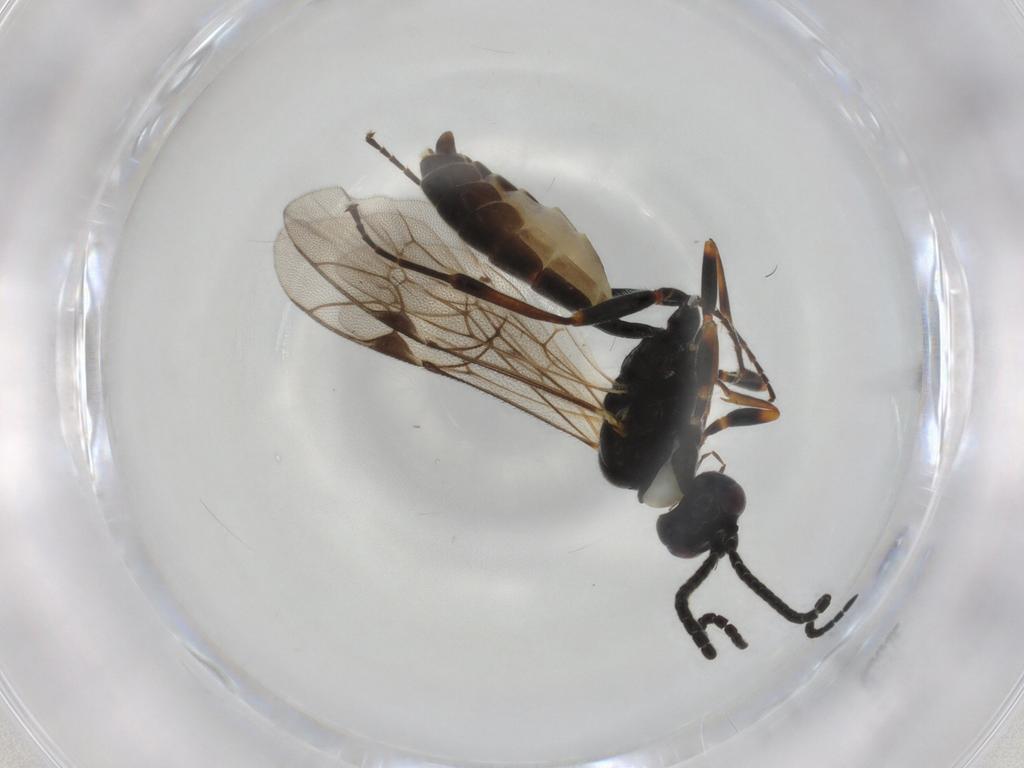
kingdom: Animalia
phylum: Arthropoda
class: Insecta
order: Hymenoptera
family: Ichneumonidae
